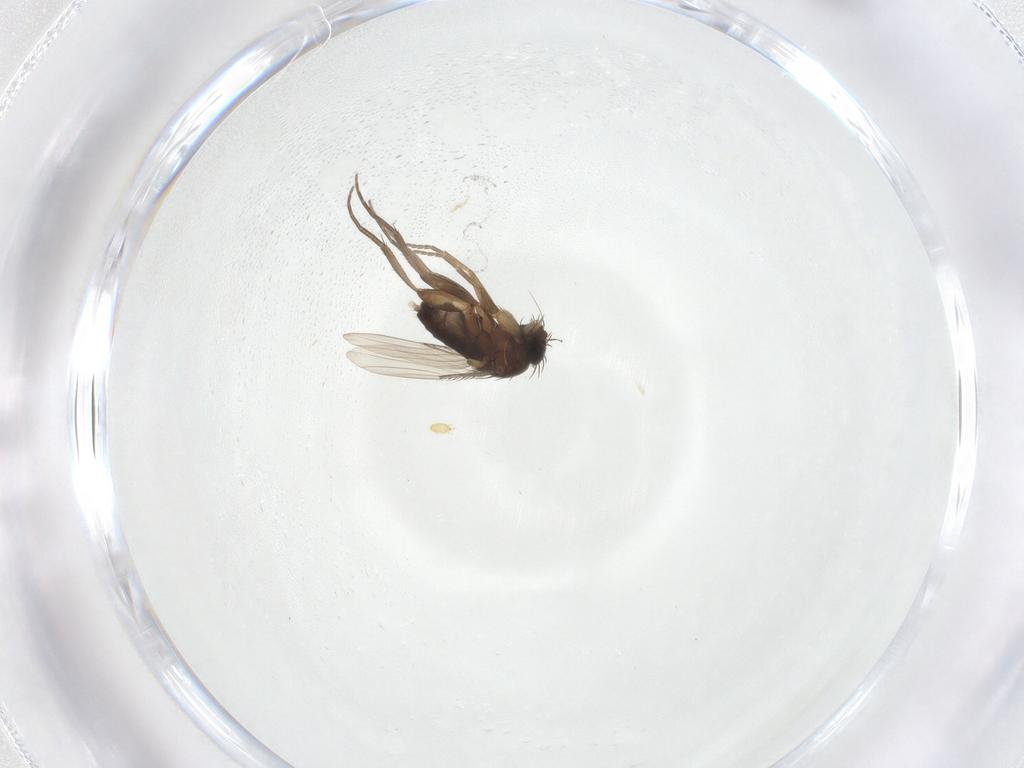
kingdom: Animalia
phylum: Arthropoda
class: Insecta
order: Diptera
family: Phoridae
